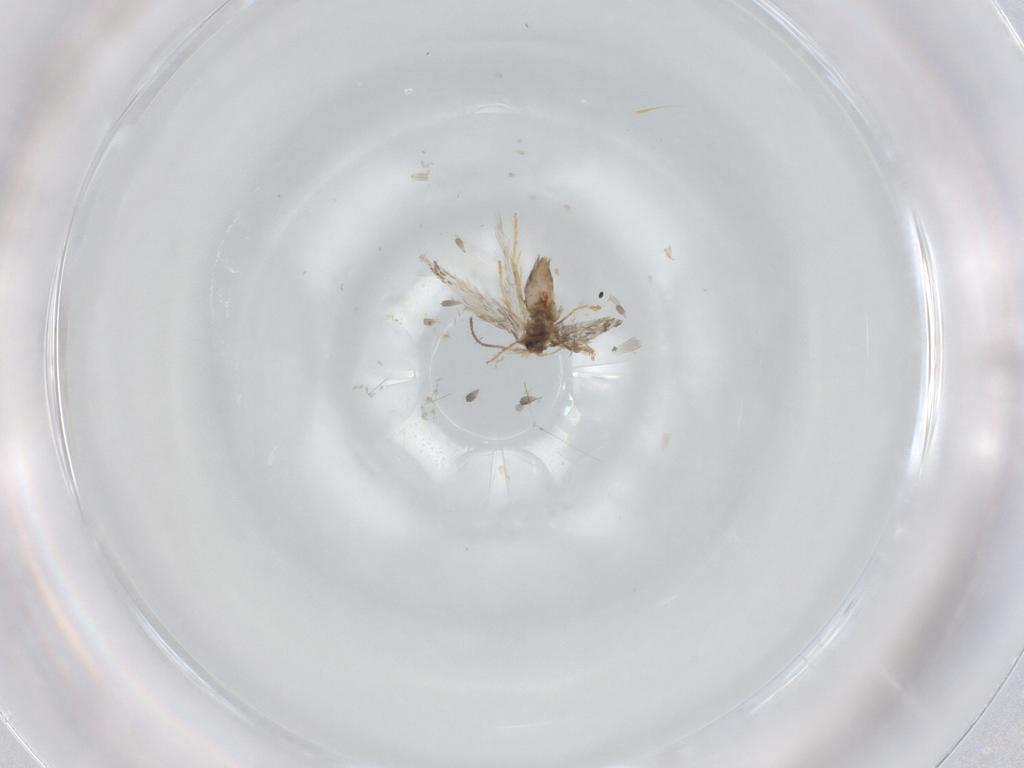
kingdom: Animalia
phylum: Arthropoda
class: Insecta
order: Lepidoptera
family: Nepticulidae
